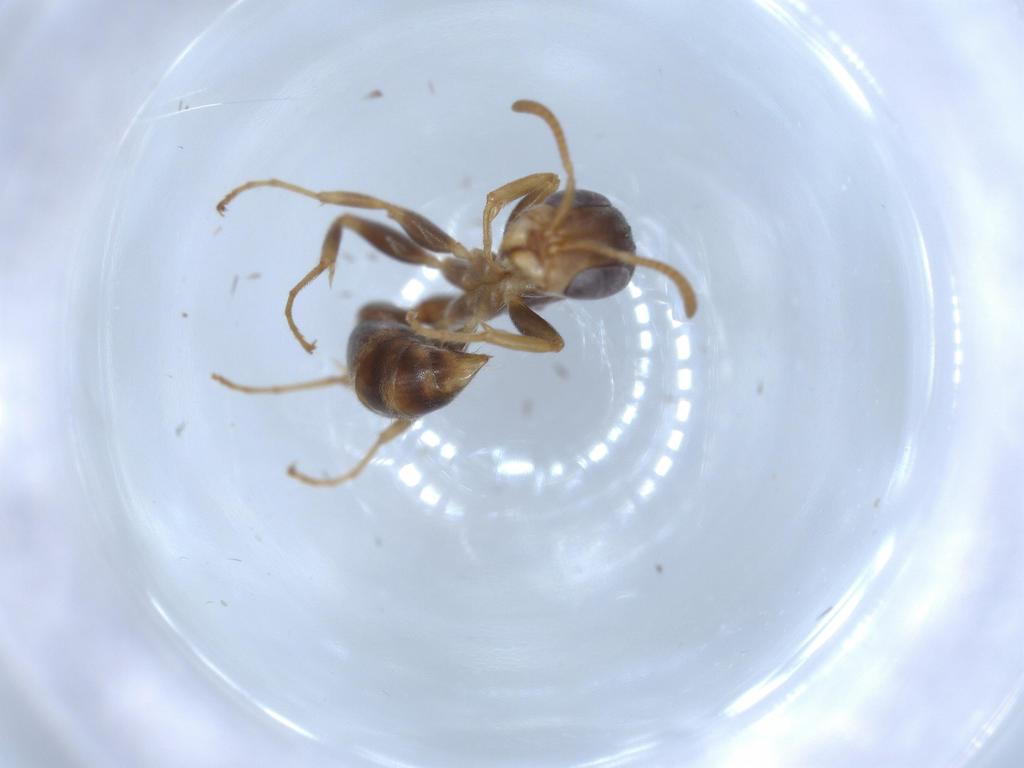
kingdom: Animalia
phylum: Arthropoda
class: Insecta
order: Hymenoptera
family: Formicidae
